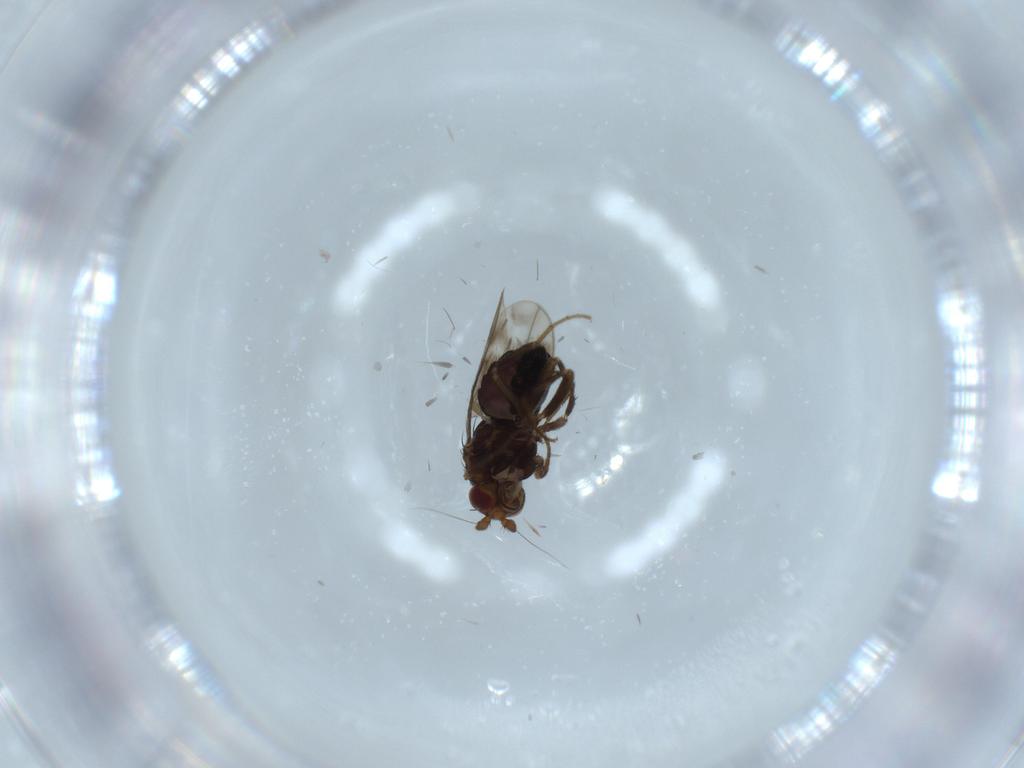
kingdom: Animalia
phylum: Arthropoda
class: Insecta
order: Diptera
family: Sphaeroceridae
